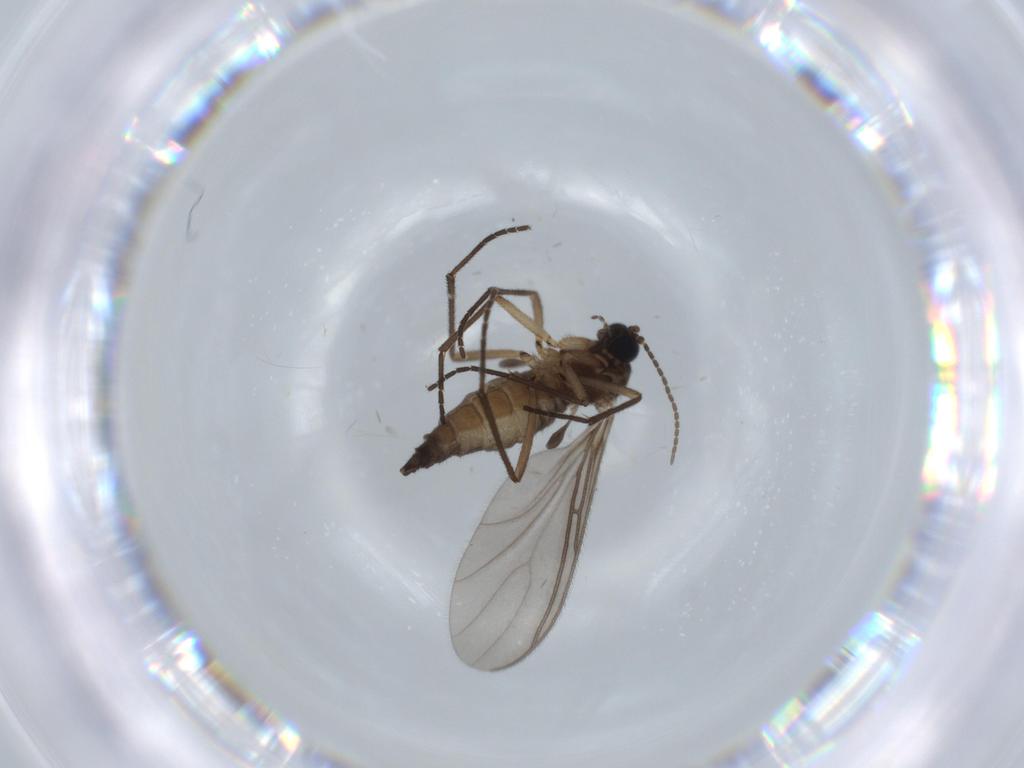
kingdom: Animalia
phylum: Arthropoda
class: Insecta
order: Diptera
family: Sciaridae
